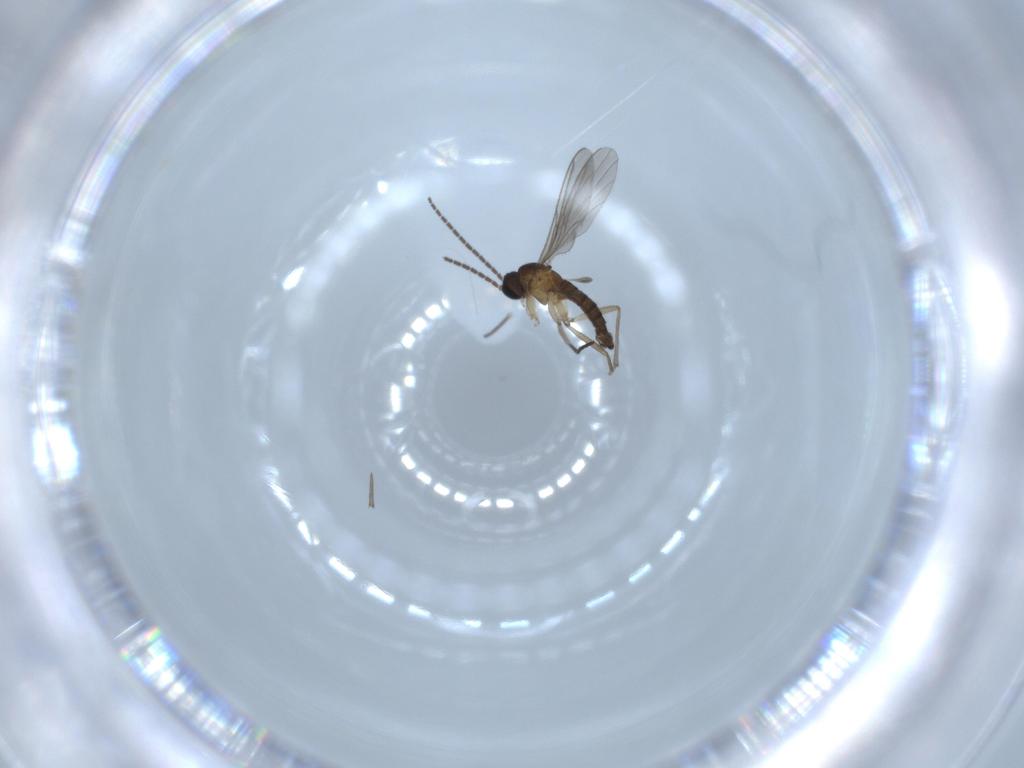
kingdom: Animalia
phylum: Arthropoda
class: Insecta
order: Diptera
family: Sciaridae
